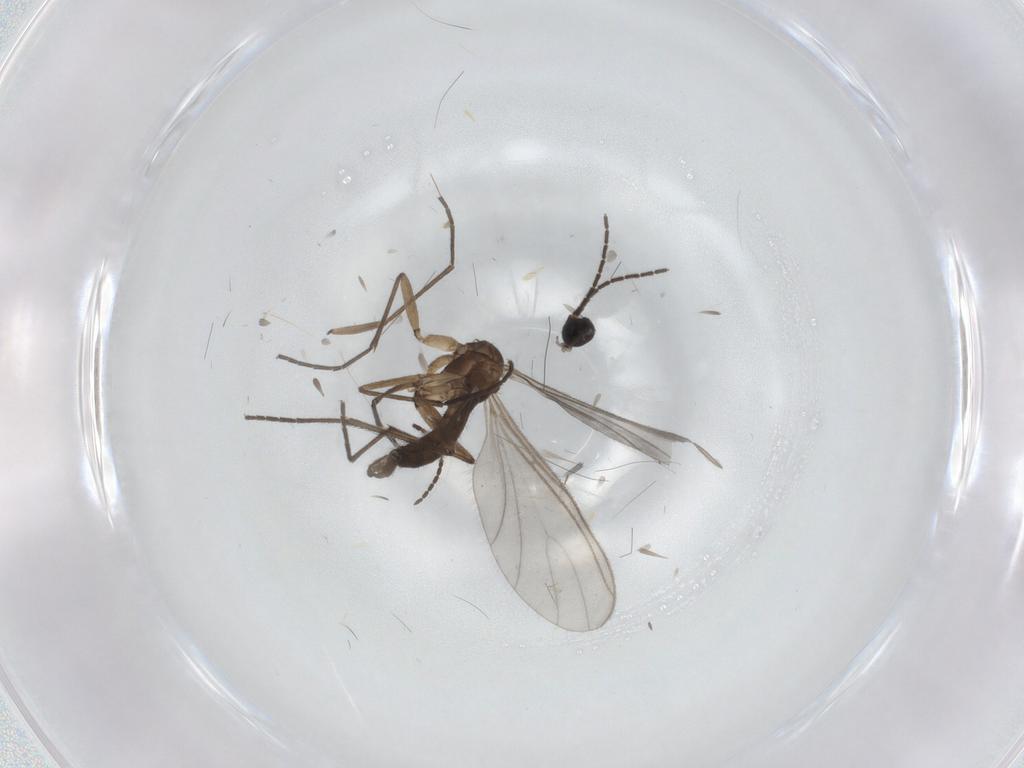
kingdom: Animalia
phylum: Arthropoda
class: Insecta
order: Diptera
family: Sciaridae
